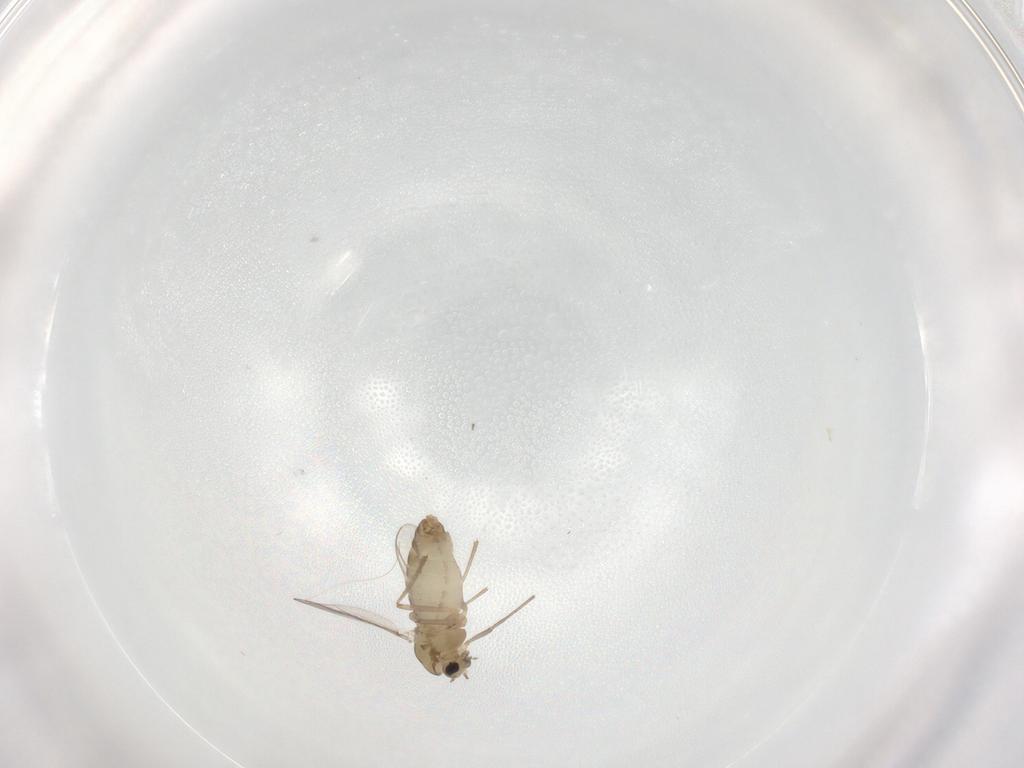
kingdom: Animalia
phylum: Arthropoda
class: Insecta
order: Diptera
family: Chironomidae
